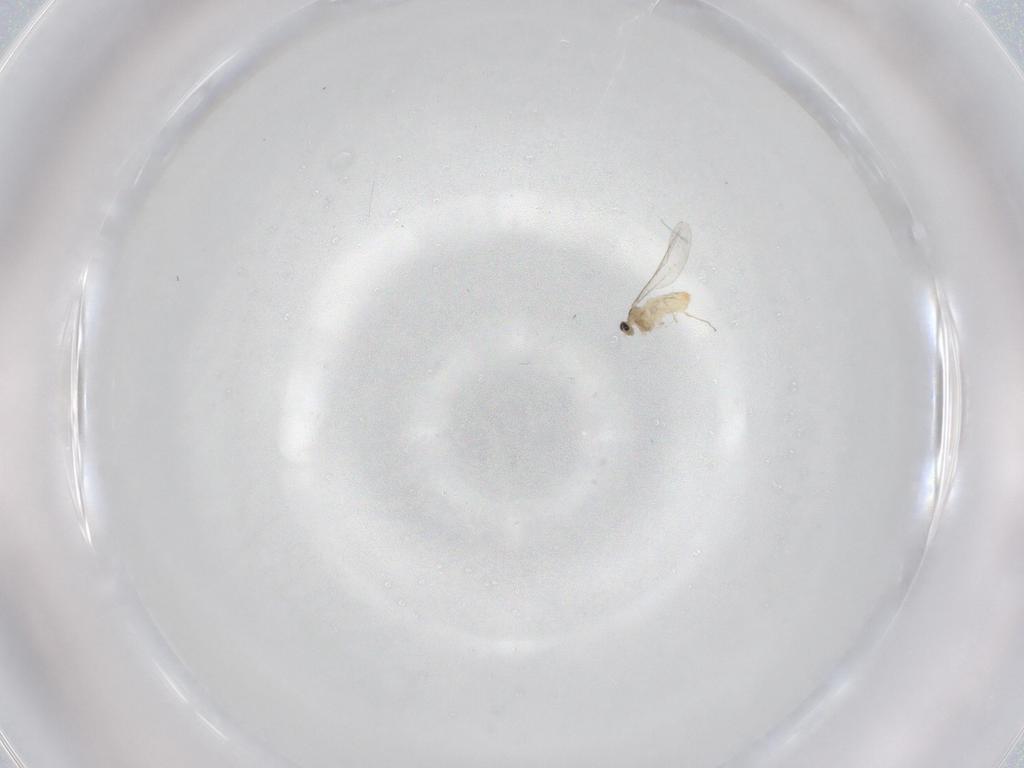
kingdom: Animalia
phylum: Arthropoda
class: Insecta
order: Diptera
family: Cecidomyiidae
